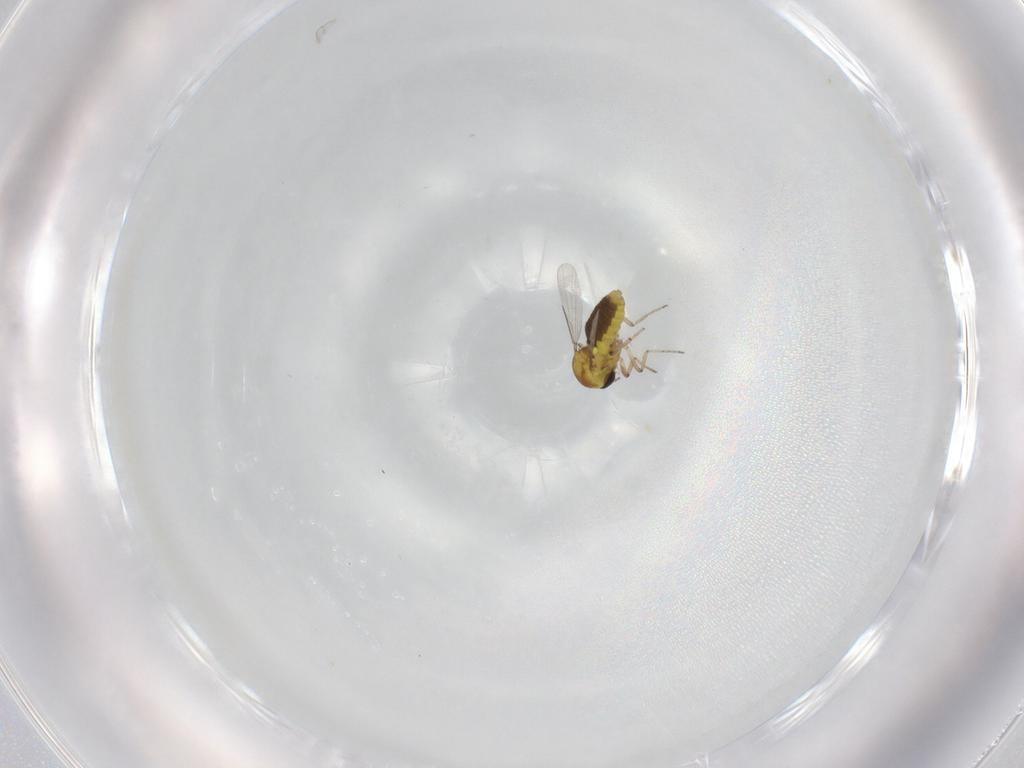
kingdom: Animalia
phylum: Arthropoda
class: Insecta
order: Diptera
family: Ceratopogonidae
